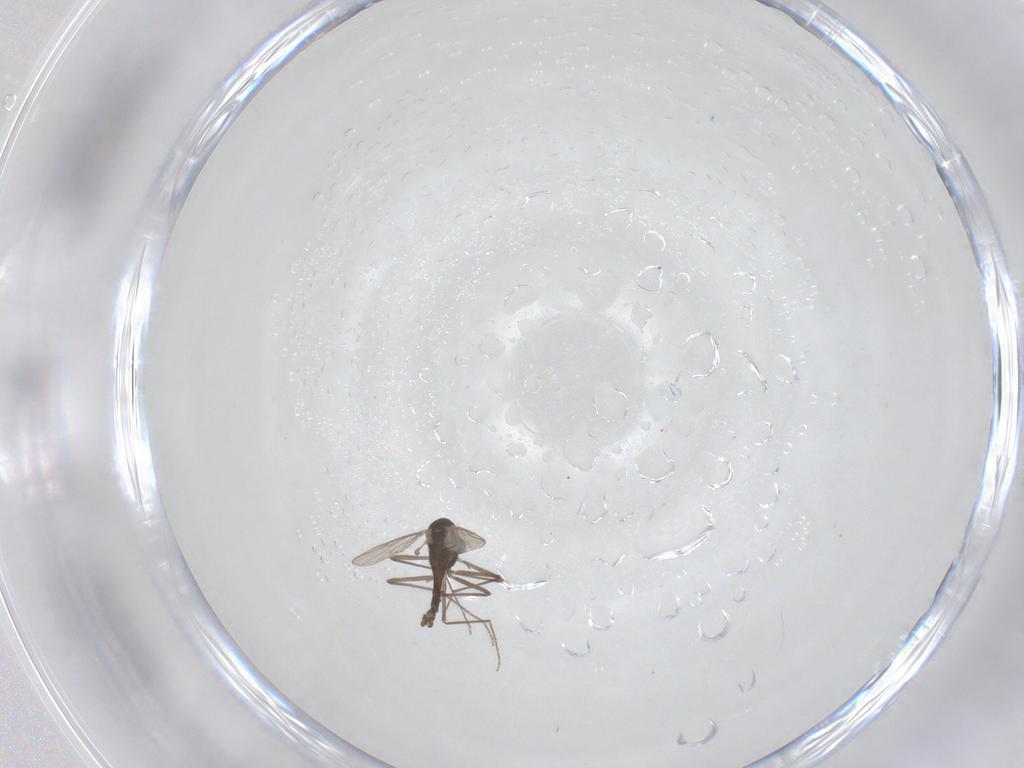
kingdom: Animalia
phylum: Arthropoda
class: Insecta
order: Diptera
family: Chironomidae
